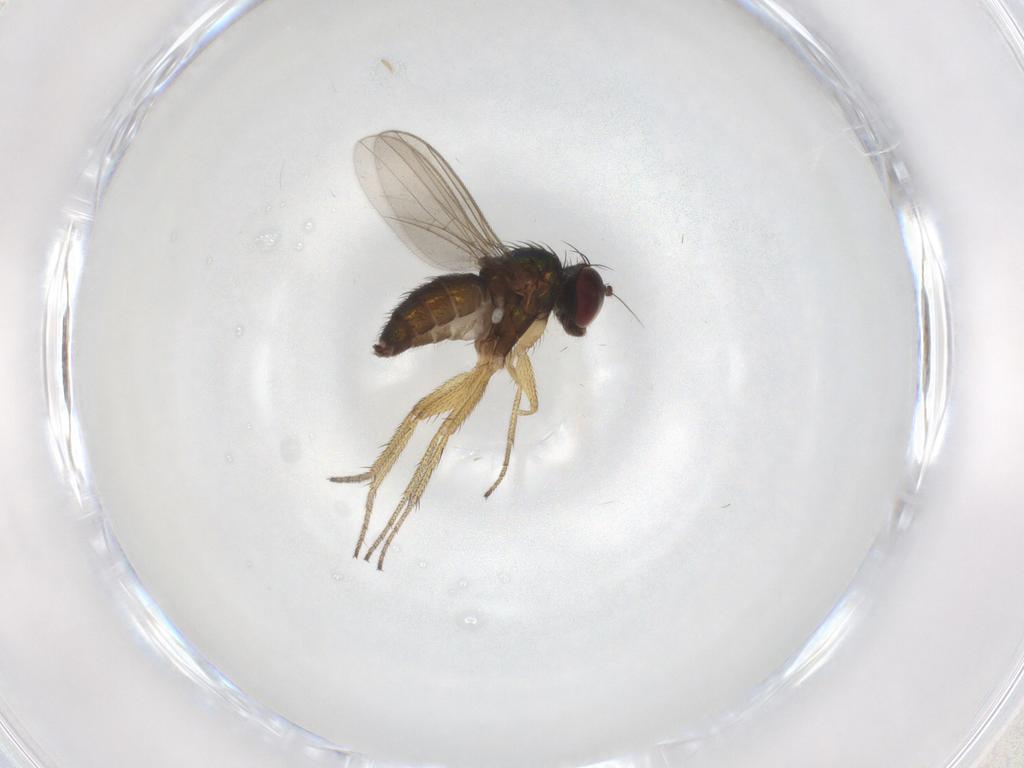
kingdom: Animalia
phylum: Arthropoda
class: Insecta
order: Diptera
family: Dolichopodidae
